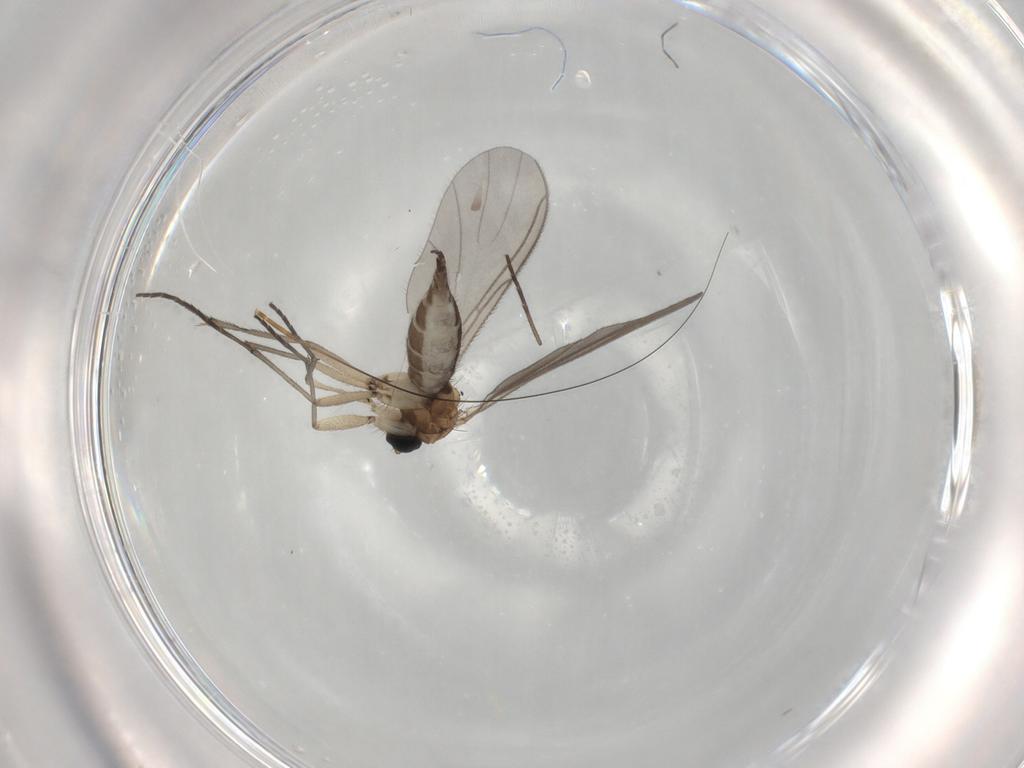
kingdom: Animalia
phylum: Arthropoda
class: Insecta
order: Diptera
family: Sciaridae
